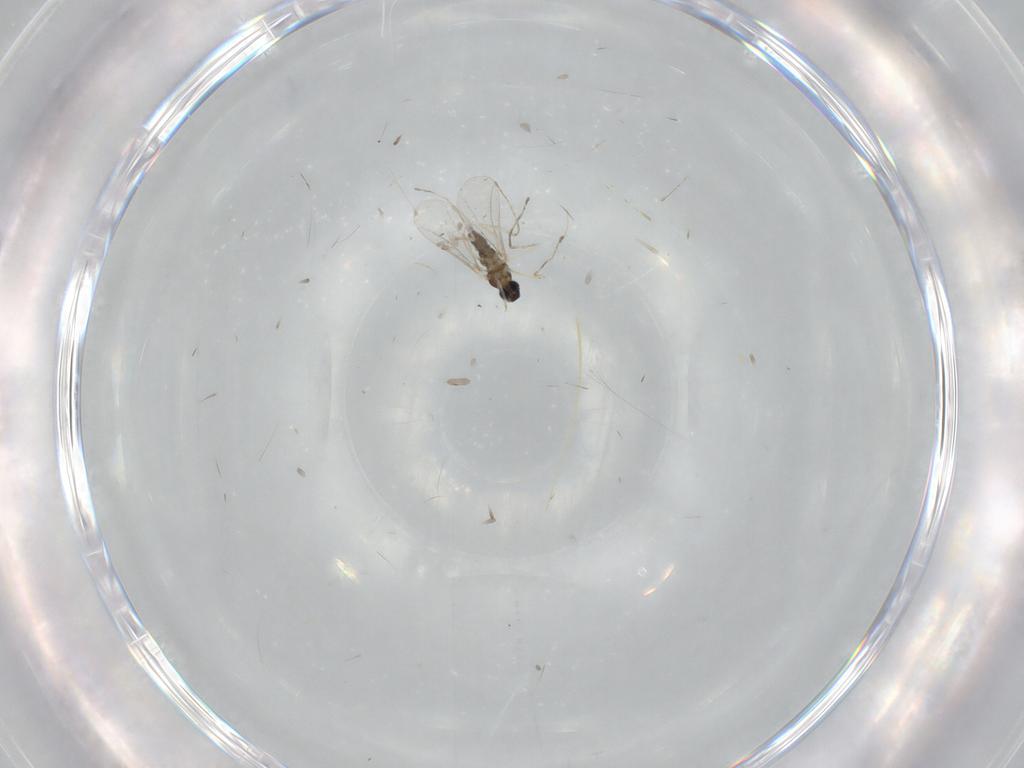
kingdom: Animalia
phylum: Arthropoda
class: Insecta
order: Diptera
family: Cecidomyiidae
